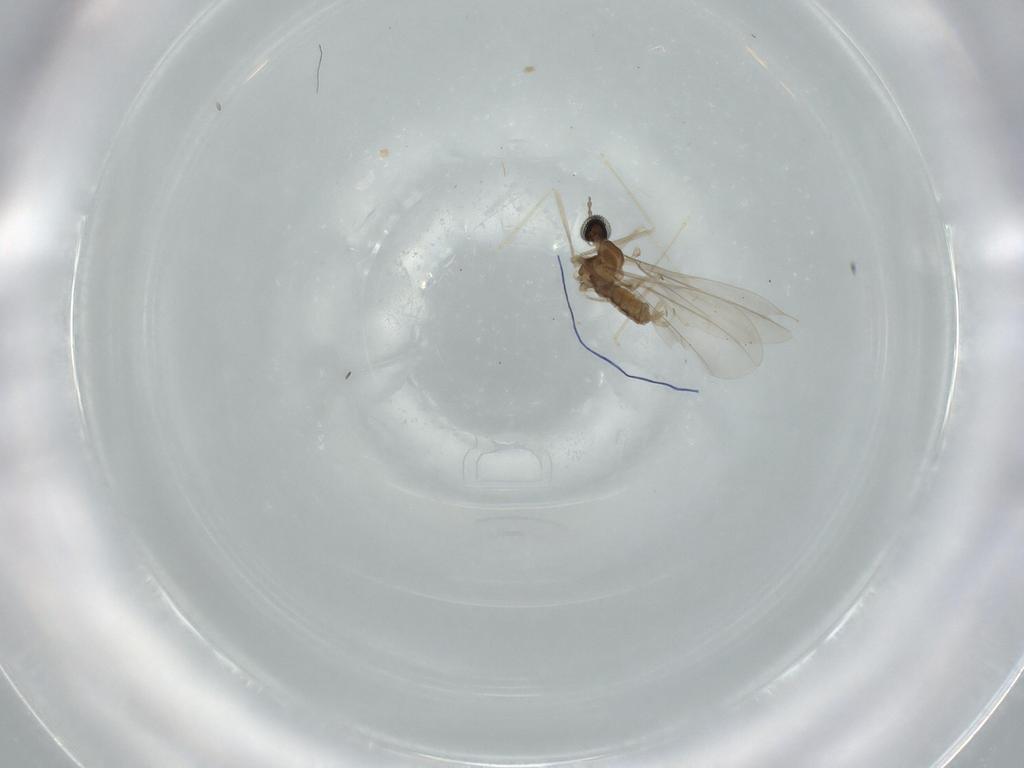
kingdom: Animalia
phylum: Arthropoda
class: Insecta
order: Diptera
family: Cecidomyiidae
